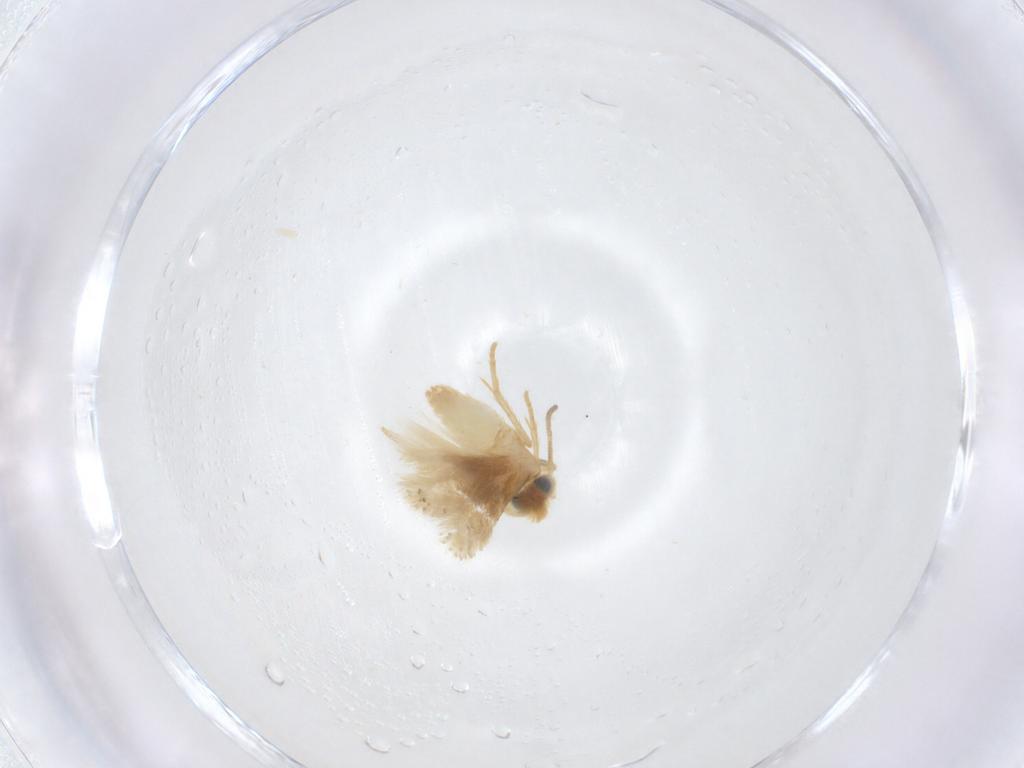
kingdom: Animalia
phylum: Arthropoda
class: Insecta
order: Lepidoptera
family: Nepticulidae
